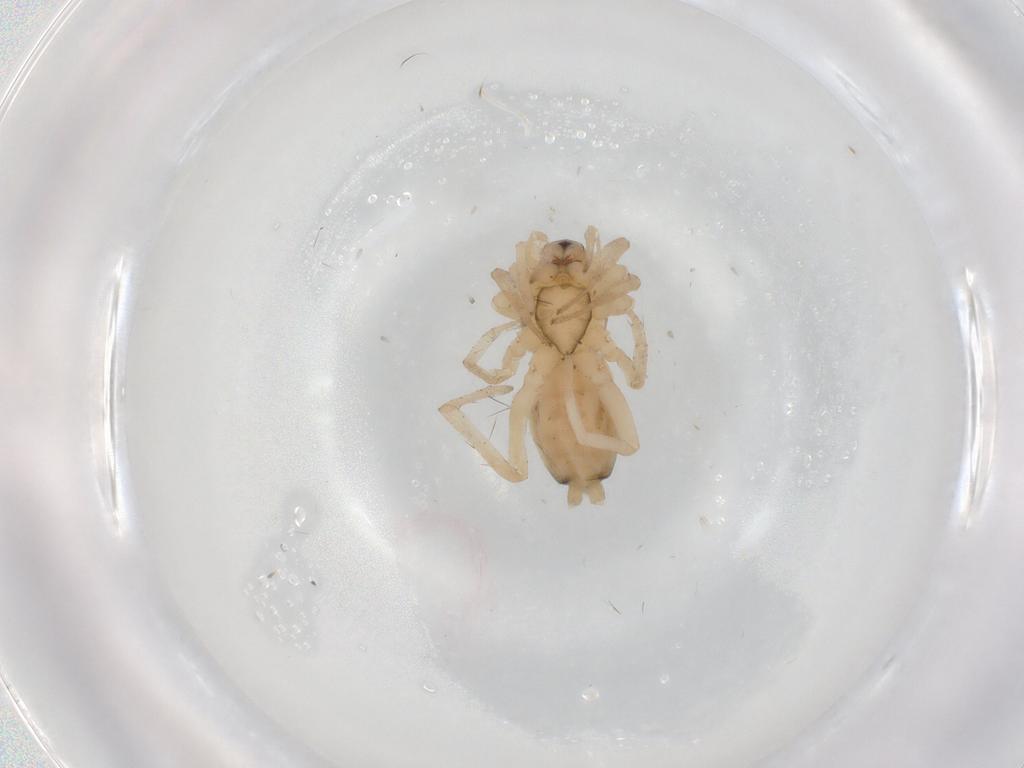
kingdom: Animalia
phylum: Arthropoda
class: Arachnida
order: Araneae
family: Gnaphosidae
